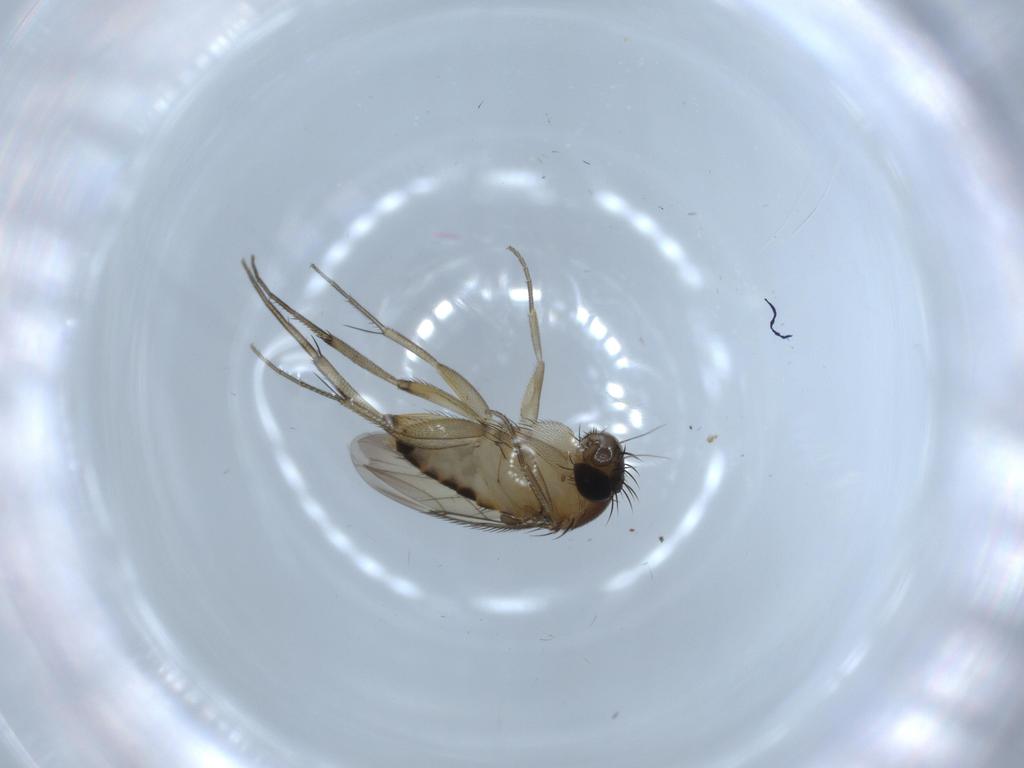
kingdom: Animalia
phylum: Arthropoda
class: Insecta
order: Diptera
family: Phoridae
